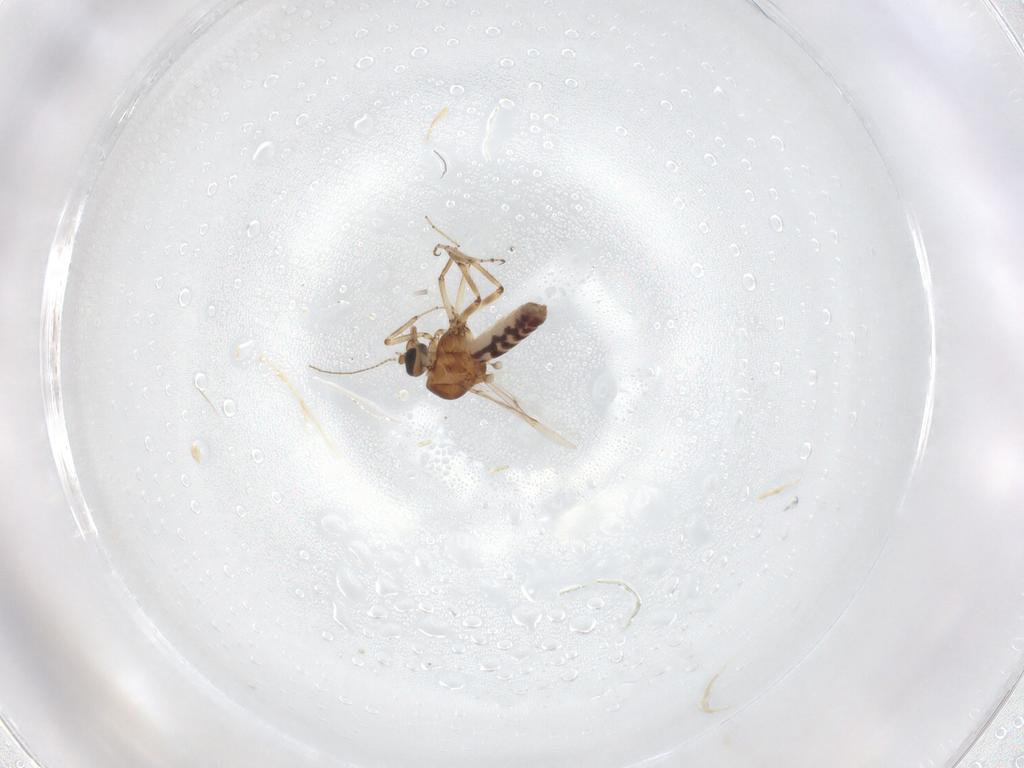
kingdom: Animalia
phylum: Arthropoda
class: Insecta
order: Diptera
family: Ceratopogonidae
